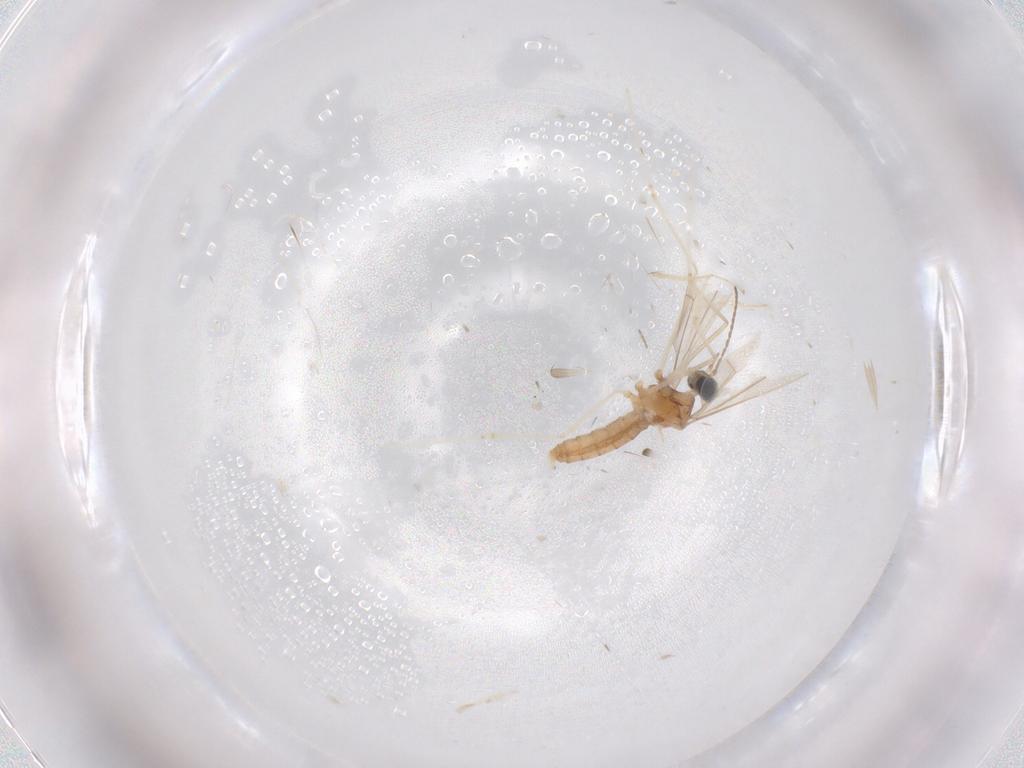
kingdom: Animalia
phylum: Arthropoda
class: Insecta
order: Diptera
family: Cecidomyiidae
